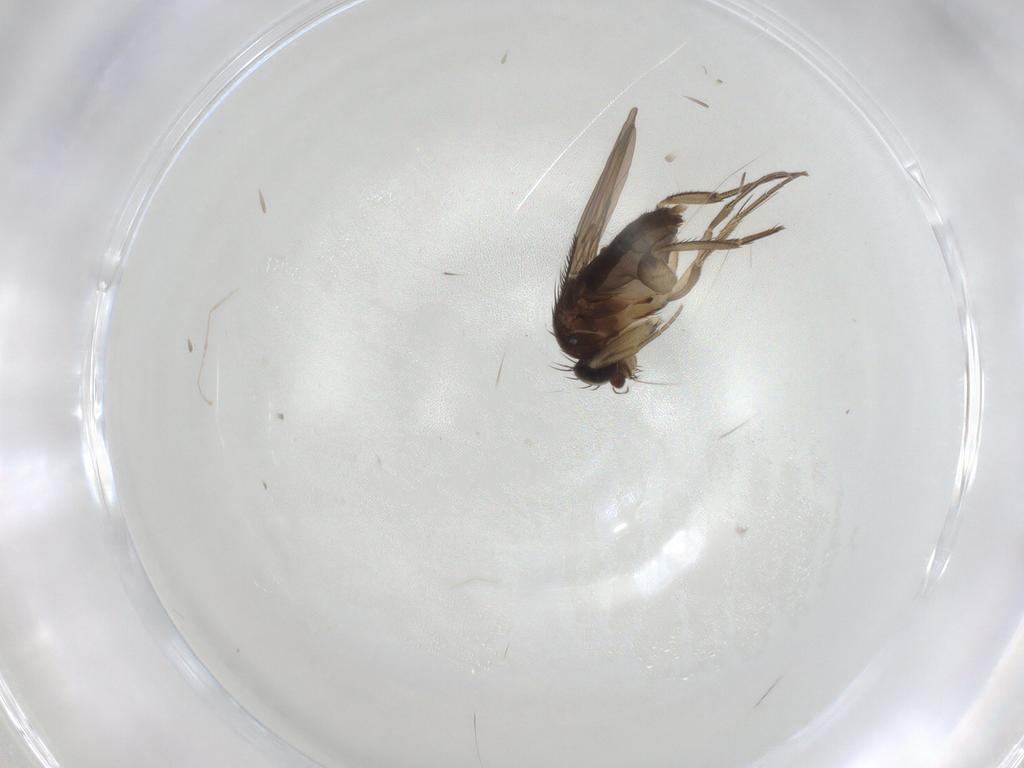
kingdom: Animalia
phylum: Arthropoda
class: Insecta
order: Diptera
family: Phoridae
